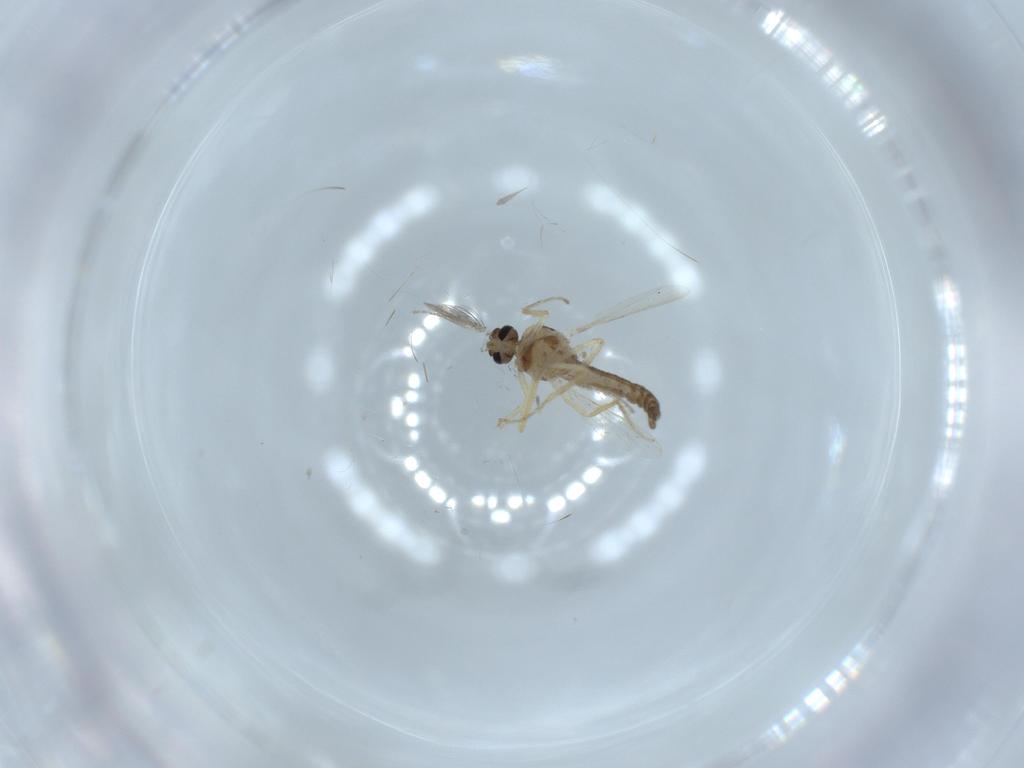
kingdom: Animalia
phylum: Arthropoda
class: Insecta
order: Diptera
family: Ceratopogonidae
